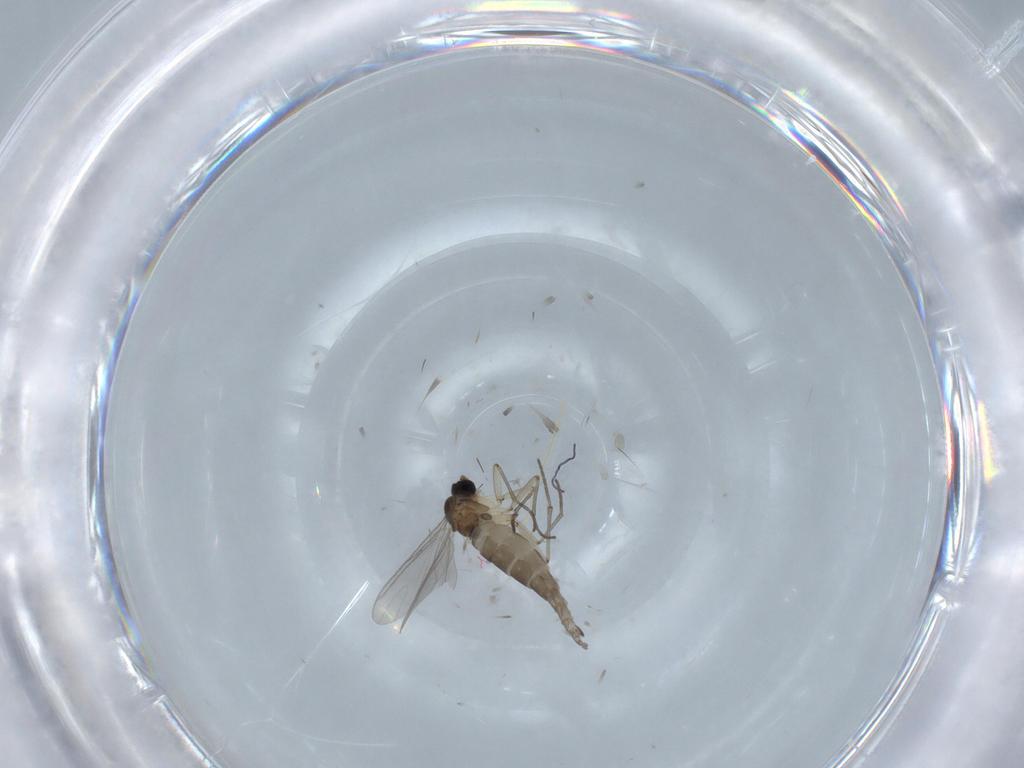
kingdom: Animalia
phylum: Arthropoda
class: Insecta
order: Diptera
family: Sciaridae
